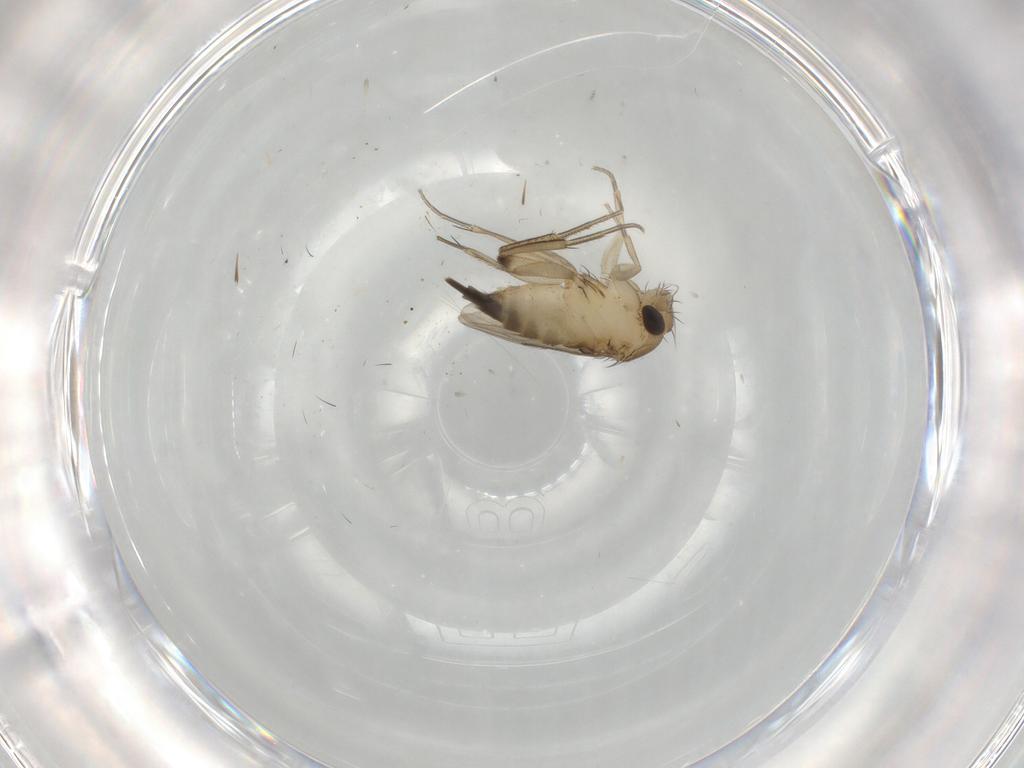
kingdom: Animalia
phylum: Arthropoda
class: Insecta
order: Diptera
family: Phoridae
